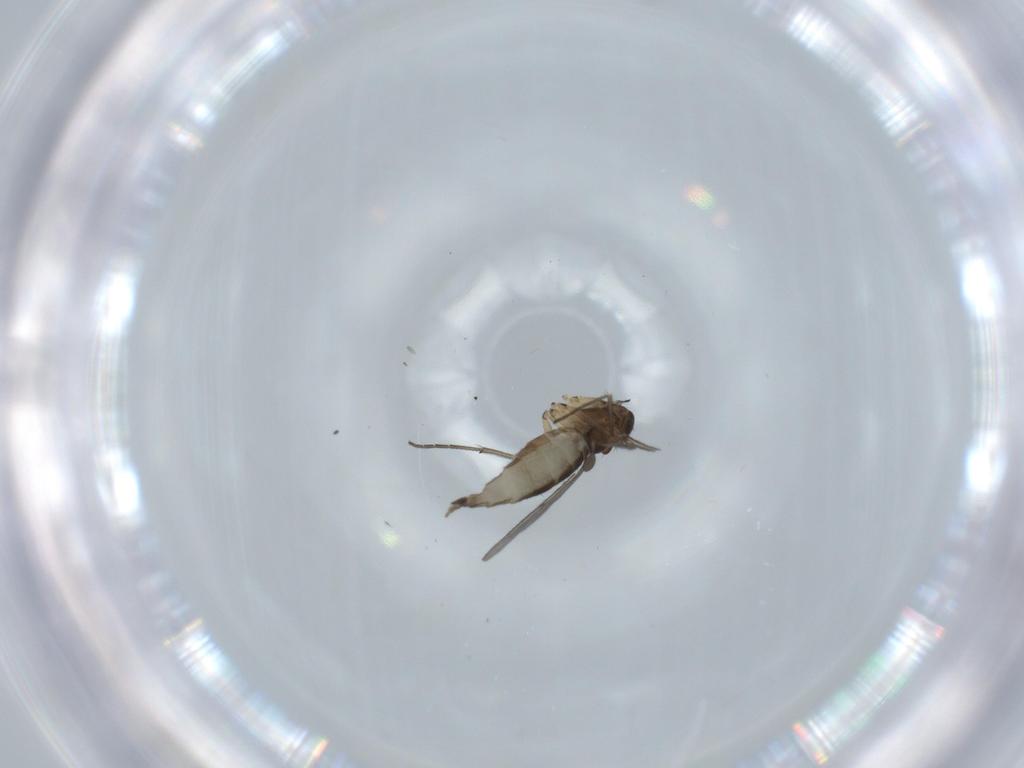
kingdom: Animalia
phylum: Arthropoda
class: Insecta
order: Diptera
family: Sciaridae
